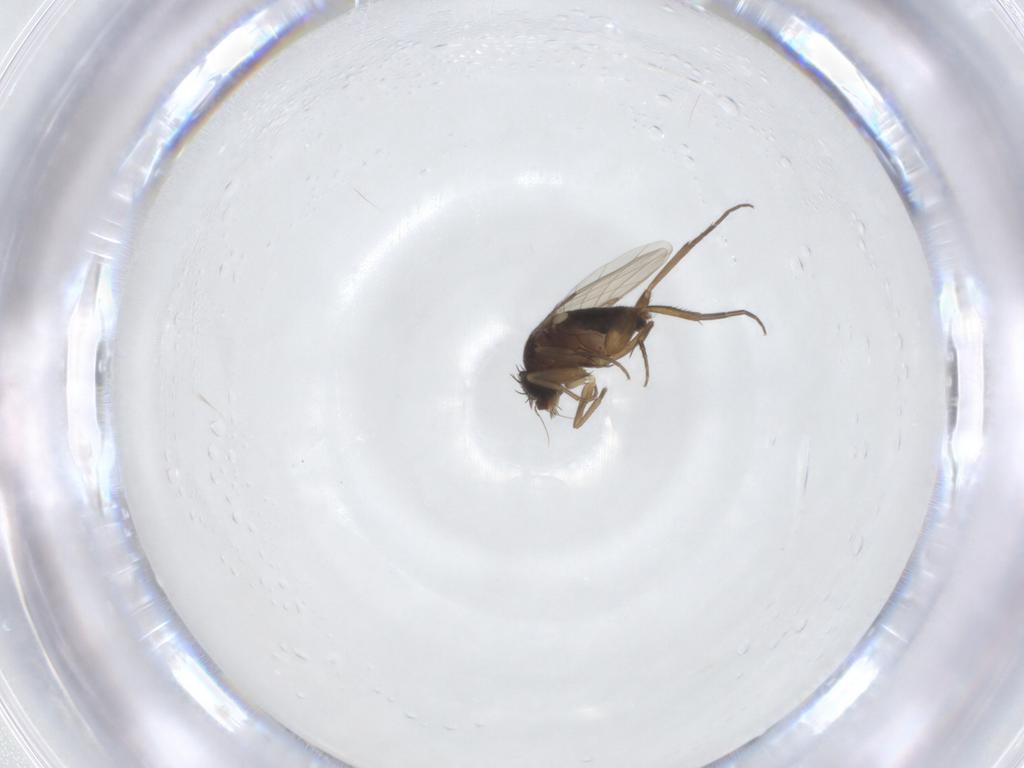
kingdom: Animalia
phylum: Arthropoda
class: Insecta
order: Diptera
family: Phoridae
